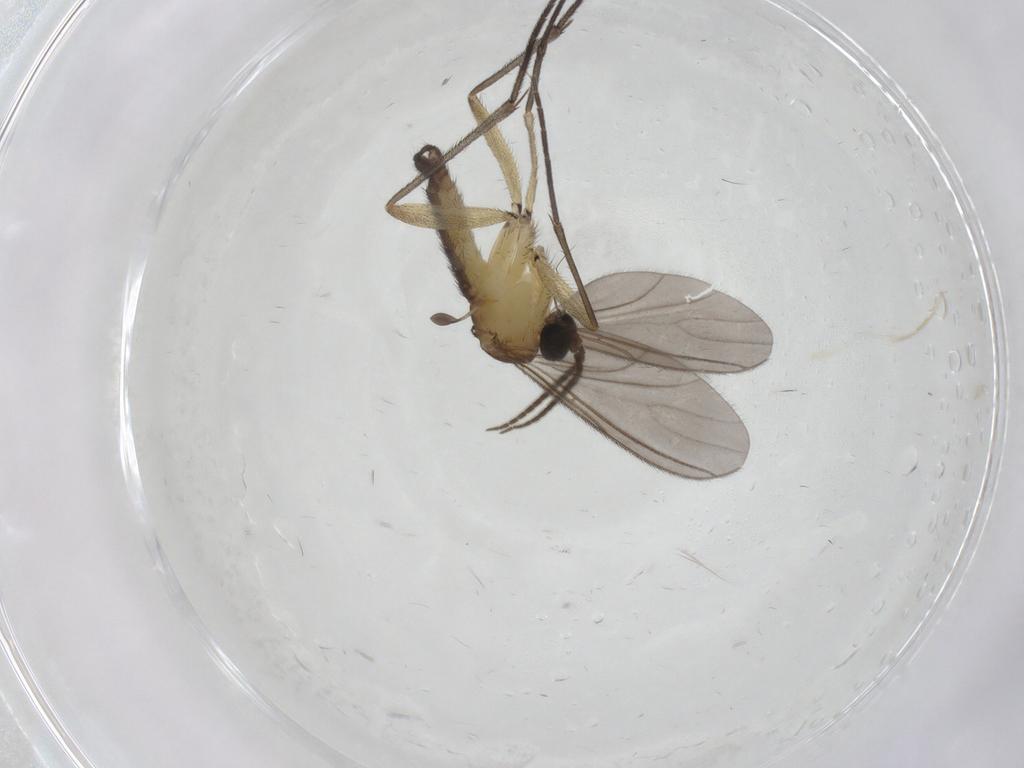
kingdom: Animalia
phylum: Arthropoda
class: Insecta
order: Diptera
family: Sciaridae
